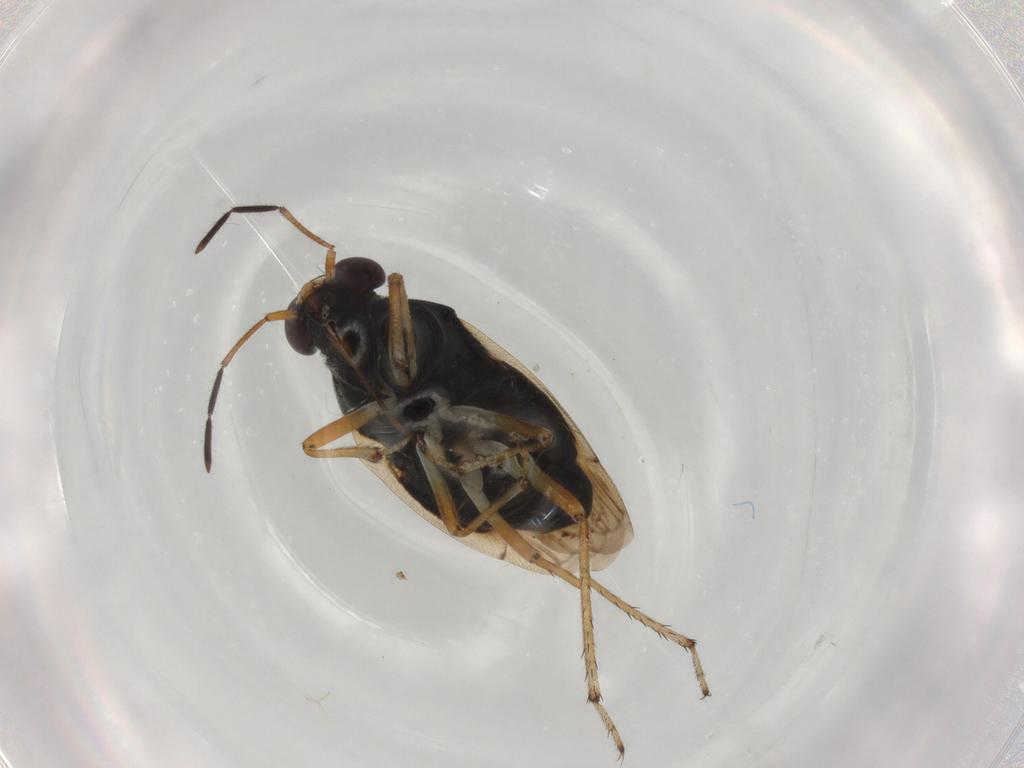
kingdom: Animalia
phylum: Arthropoda
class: Insecta
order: Hemiptera
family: Saldidae
